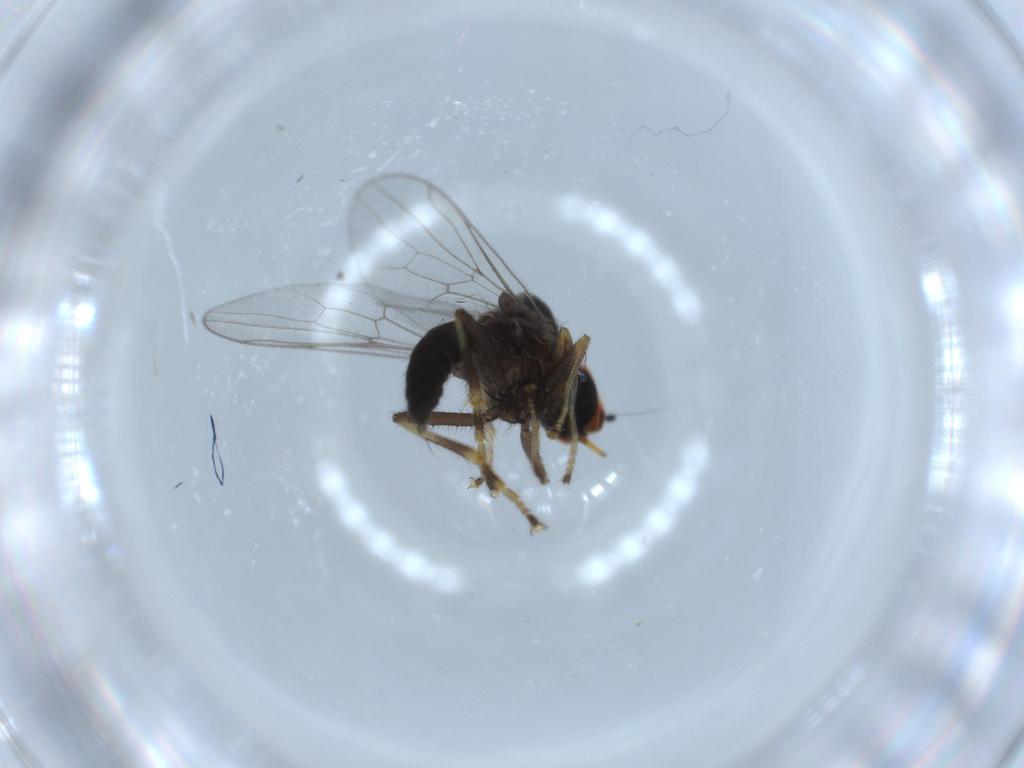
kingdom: Animalia
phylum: Arthropoda
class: Insecta
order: Diptera
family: Hybotidae
